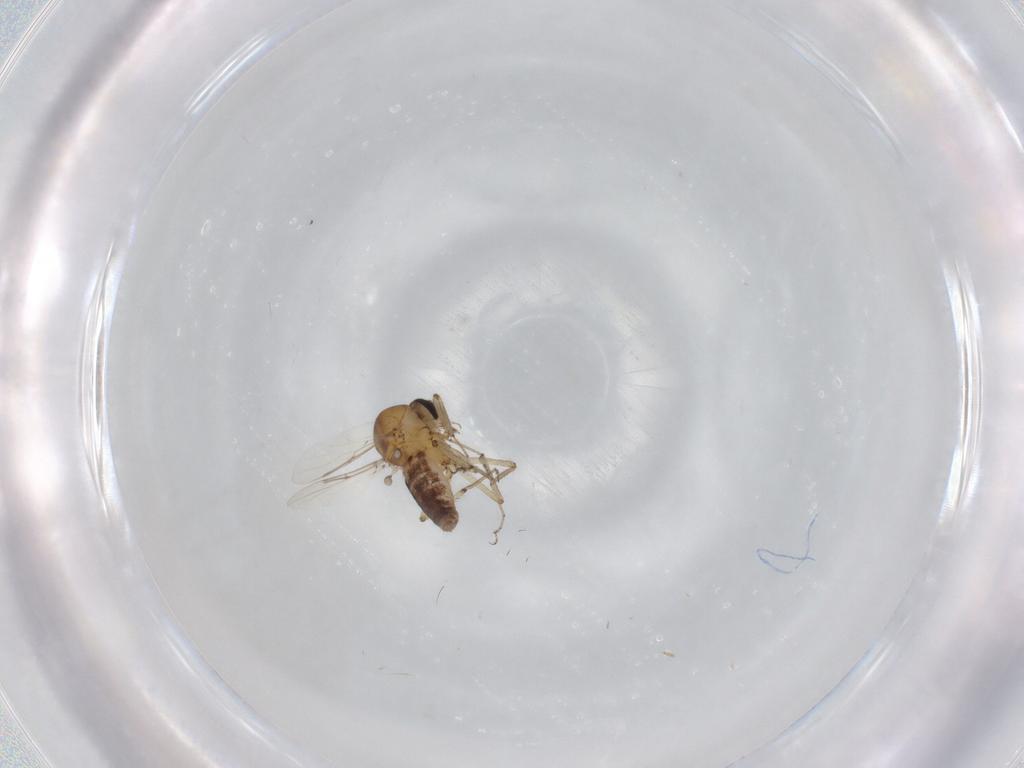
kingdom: Animalia
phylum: Arthropoda
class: Insecta
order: Diptera
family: Ceratopogonidae
